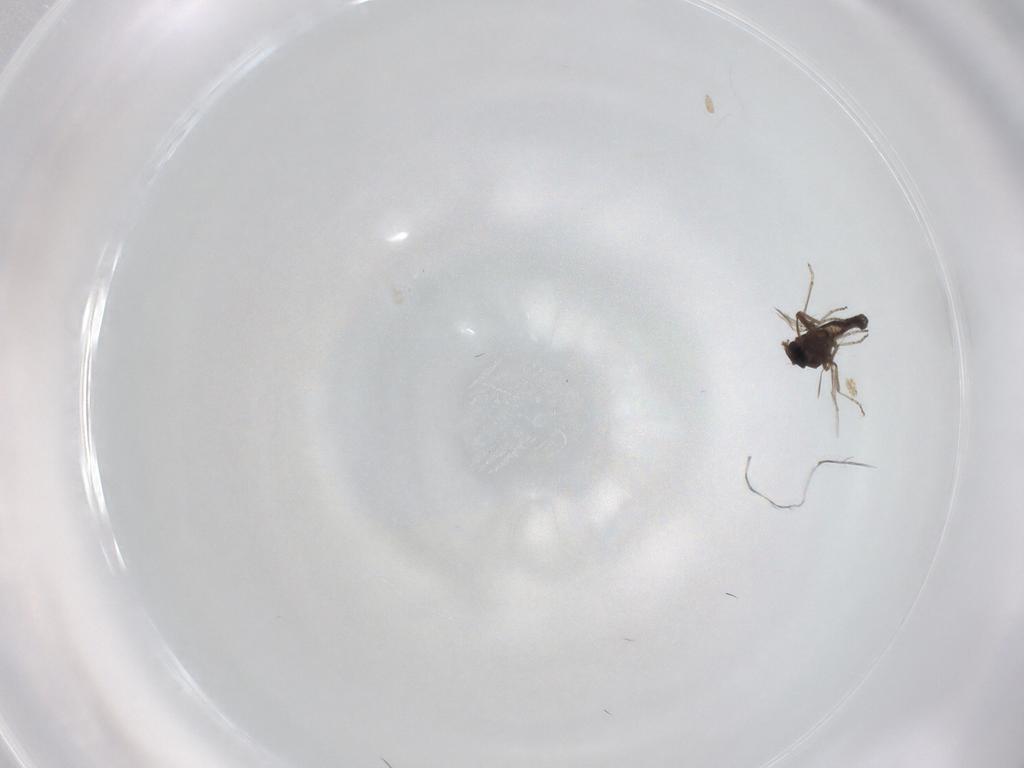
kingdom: Animalia
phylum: Arthropoda
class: Insecta
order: Diptera
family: Ceratopogonidae
